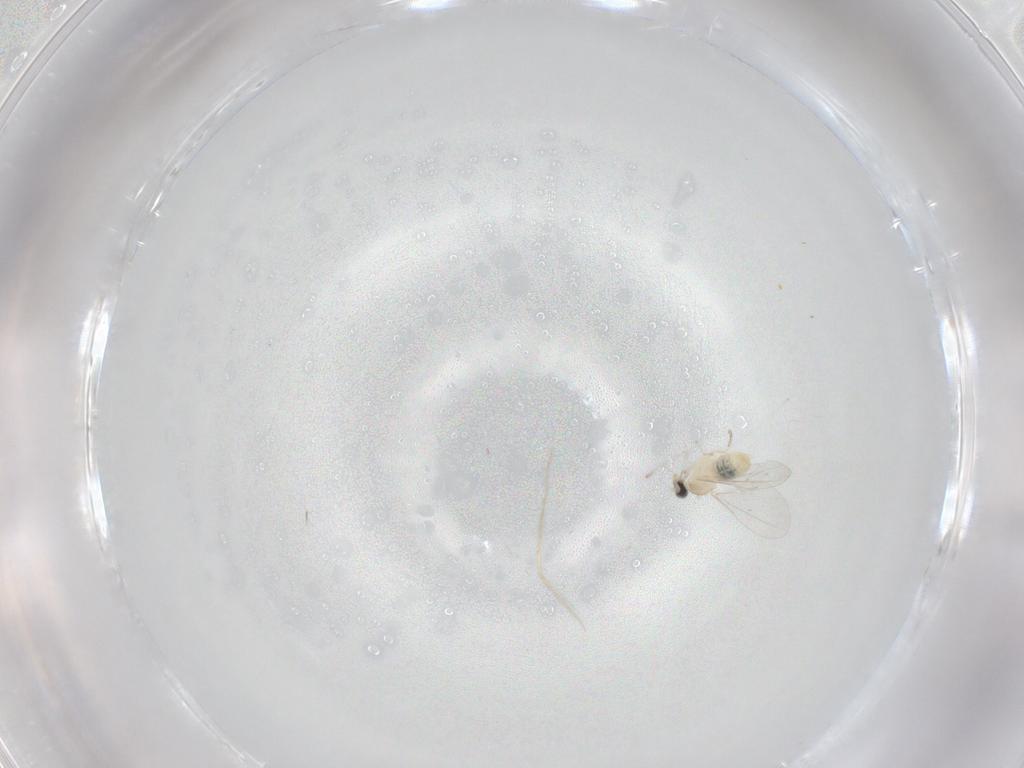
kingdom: Animalia
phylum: Arthropoda
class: Insecta
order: Diptera
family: Cecidomyiidae
